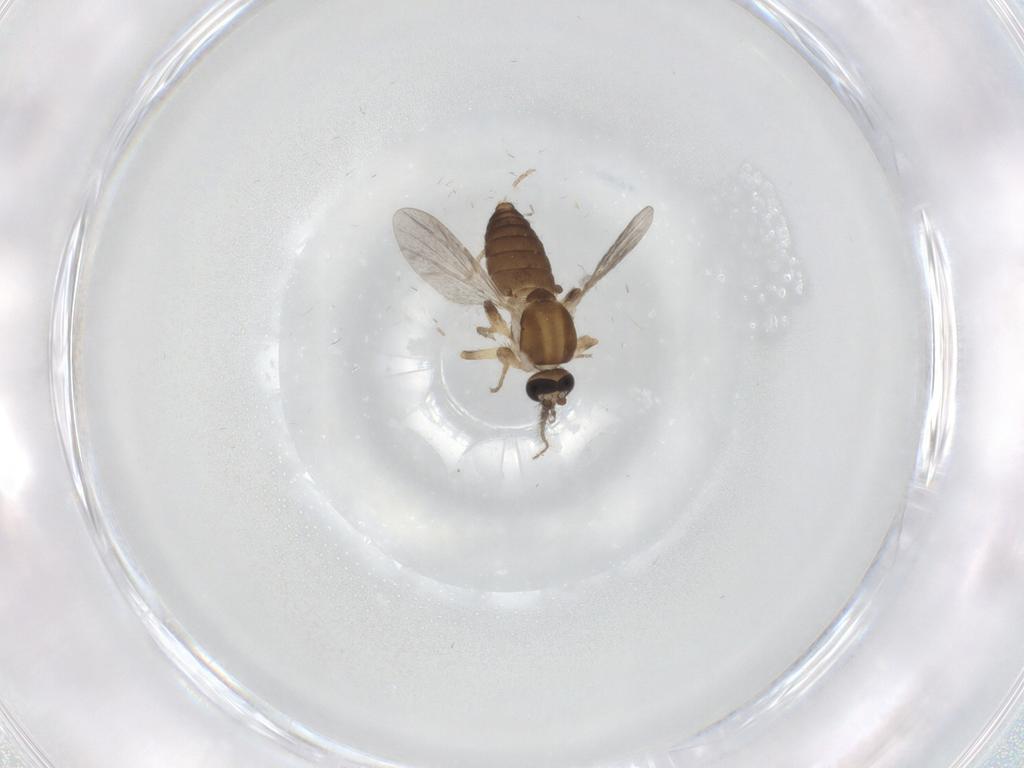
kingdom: Animalia
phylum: Arthropoda
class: Insecta
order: Diptera
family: Ceratopogonidae
